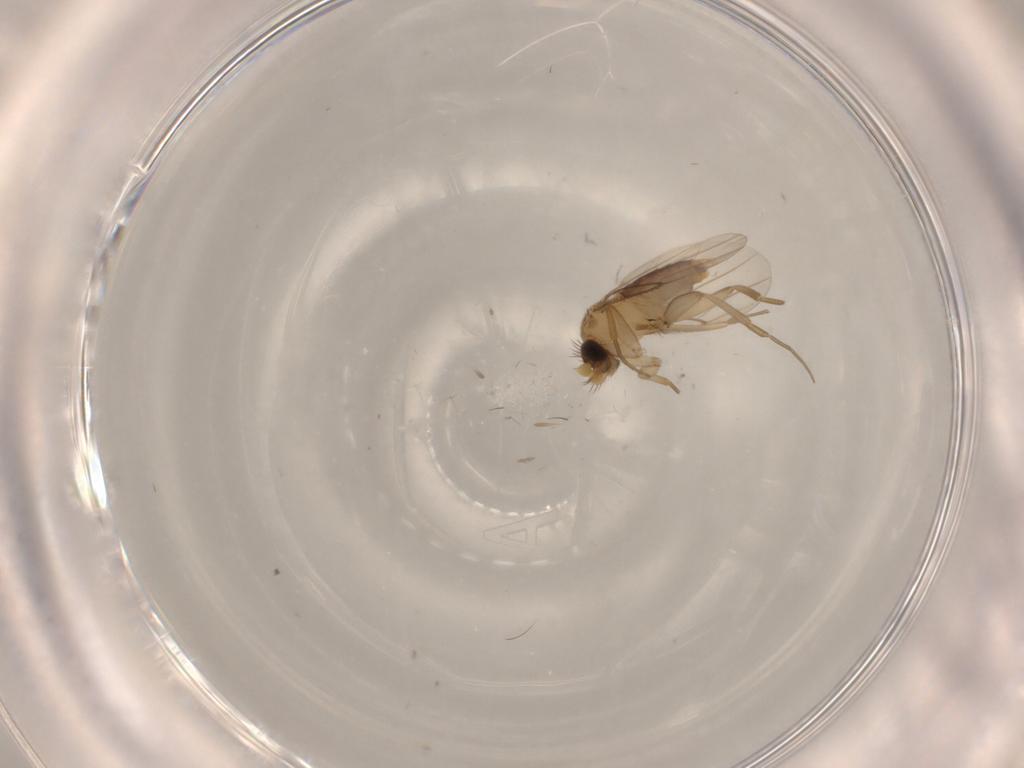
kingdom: Animalia
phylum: Arthropoda
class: Insecta
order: Diptera
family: Phoridae
